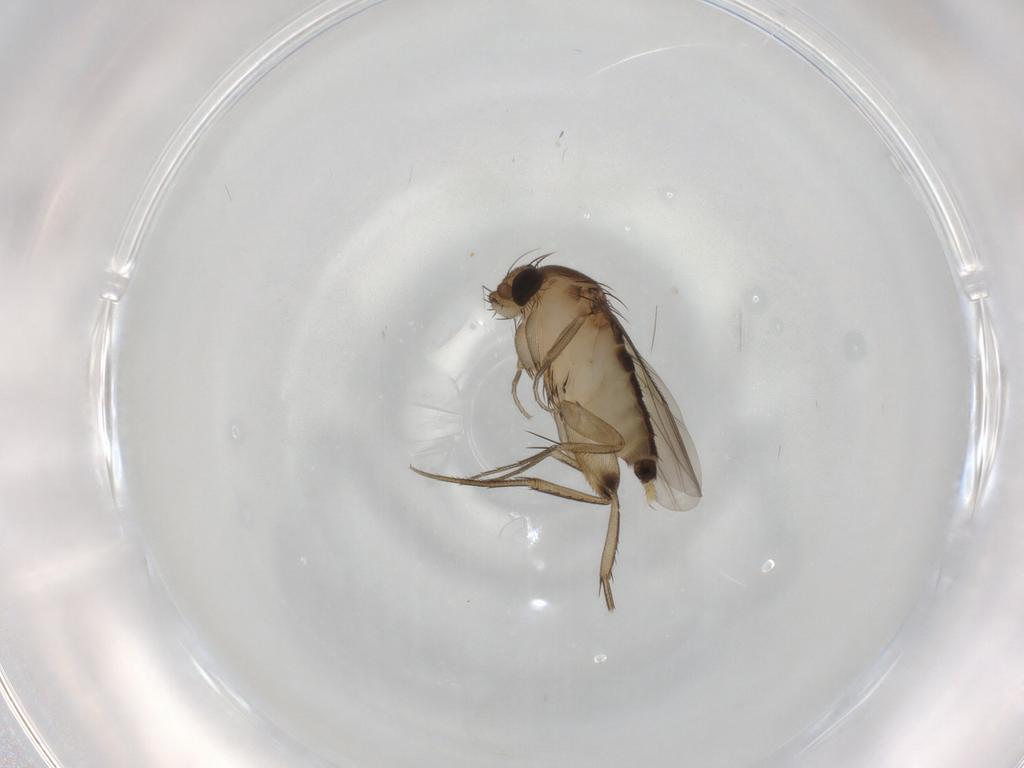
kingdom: Animalia
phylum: Arthropoda
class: Insecta
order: Diptera
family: Cecidomyiidae
